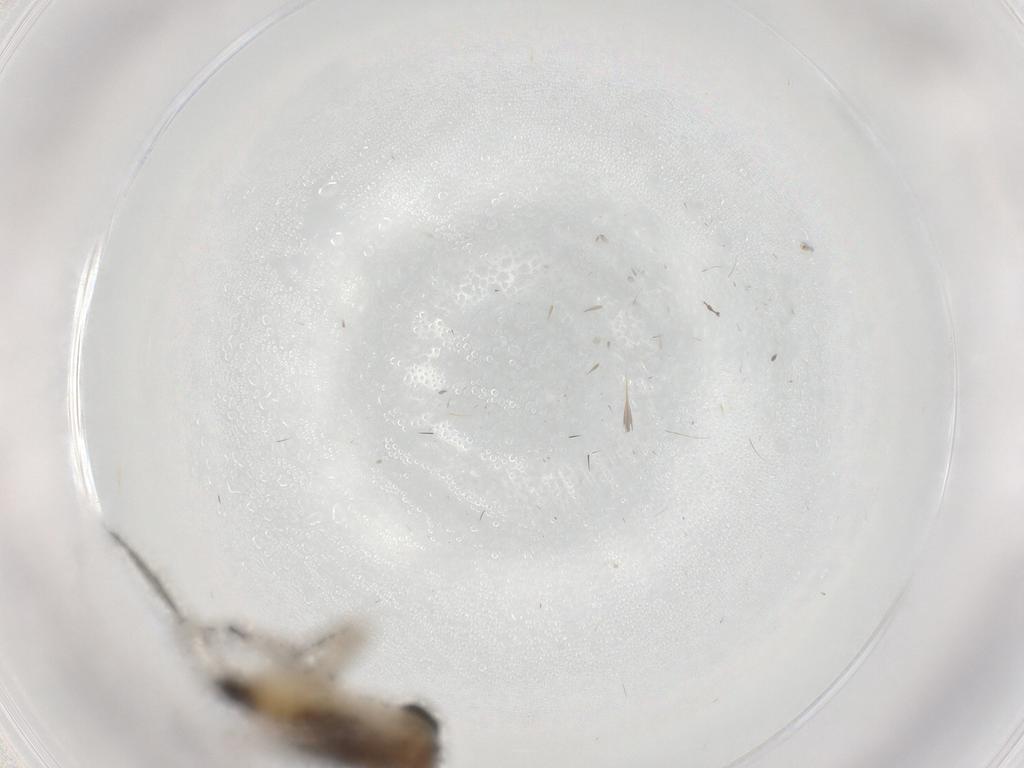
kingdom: Animalia
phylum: Arthropoda
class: Insecta
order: Diptera
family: Phoridae
